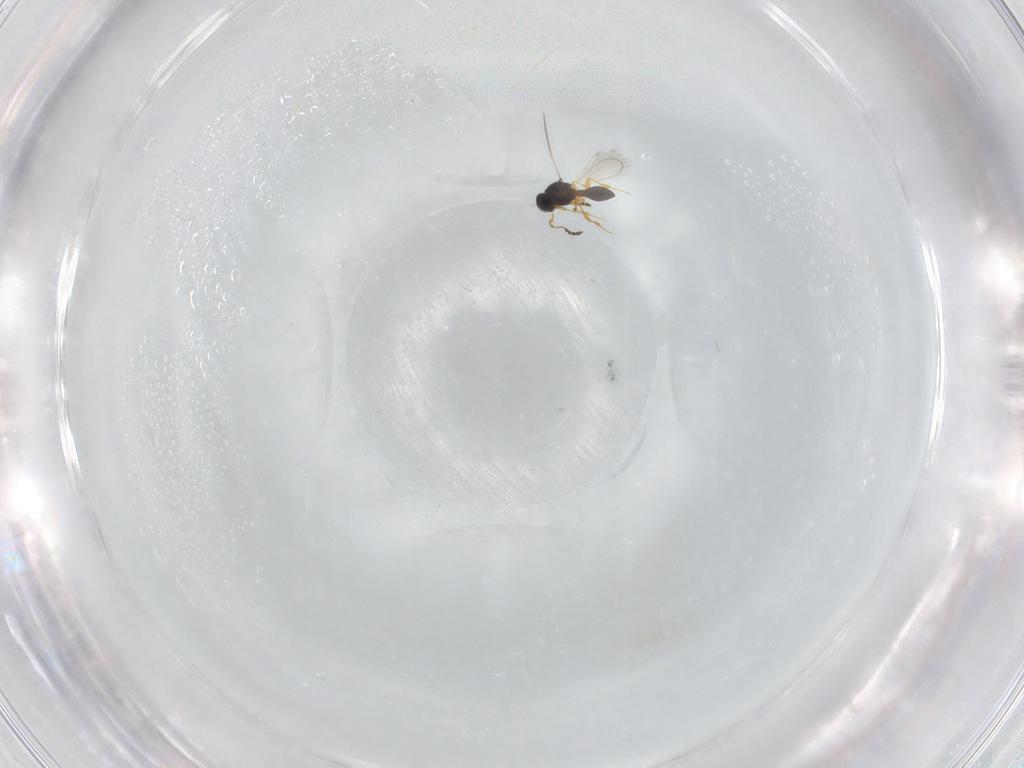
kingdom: Animalia
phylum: Arthropoda
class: Insecta
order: Hymenoptera
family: Platygastridae
